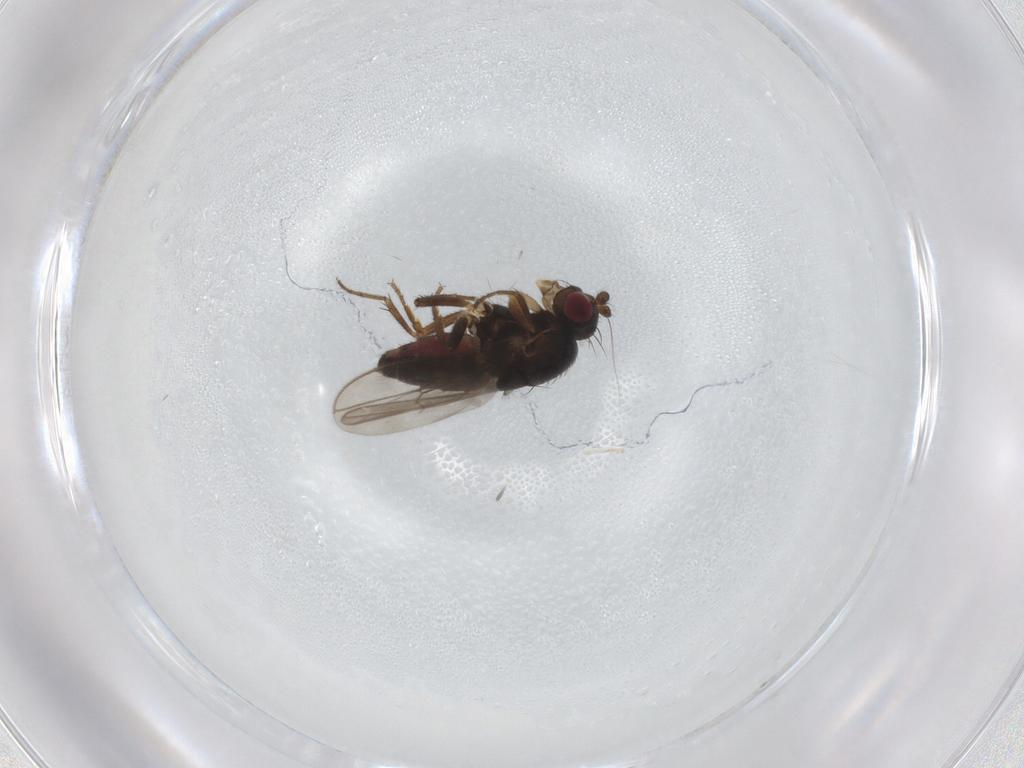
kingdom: Animalia
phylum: Arthropoda
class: Insecta
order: Diptera
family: Sphaeroceridae
